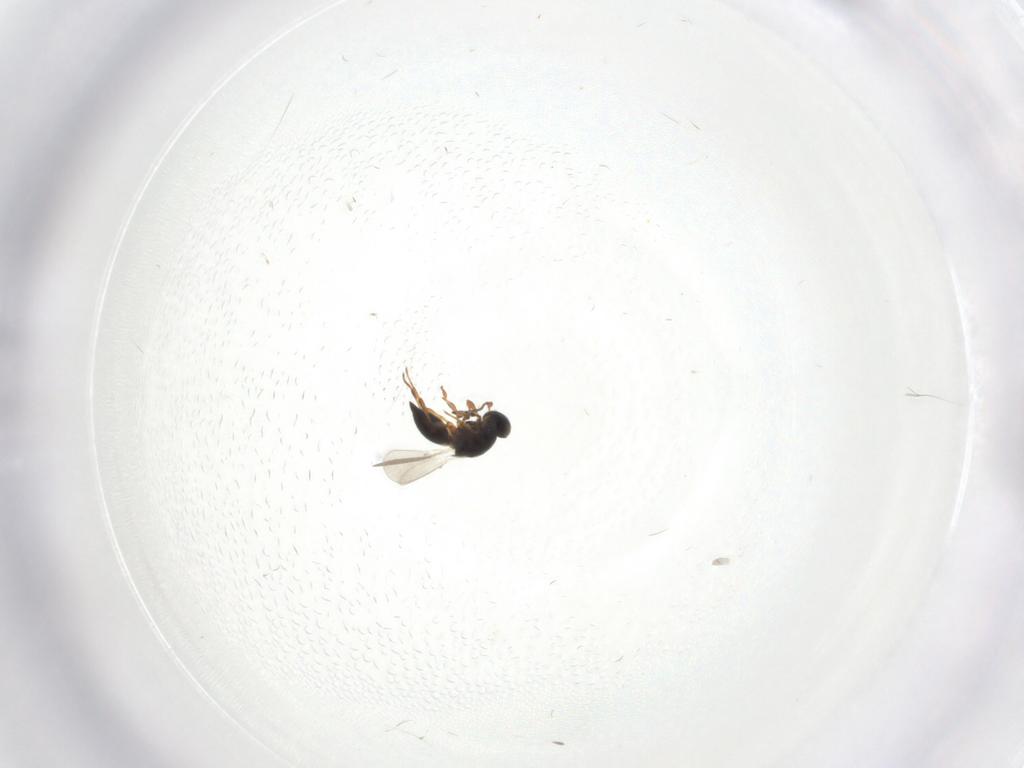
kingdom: Animalia
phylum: Arthropoda
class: Insecta
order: Hymenoptera
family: Platygastridae
